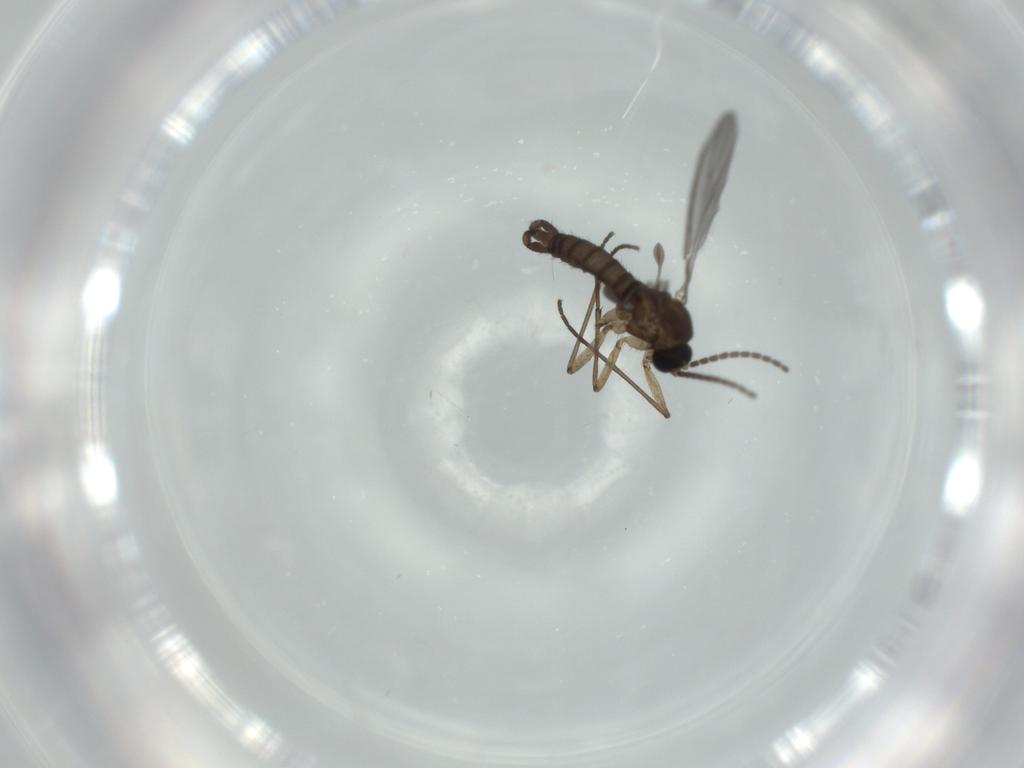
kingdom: Animalia
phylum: Arthropoda
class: Insecta
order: Diptera
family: Sciaridae
